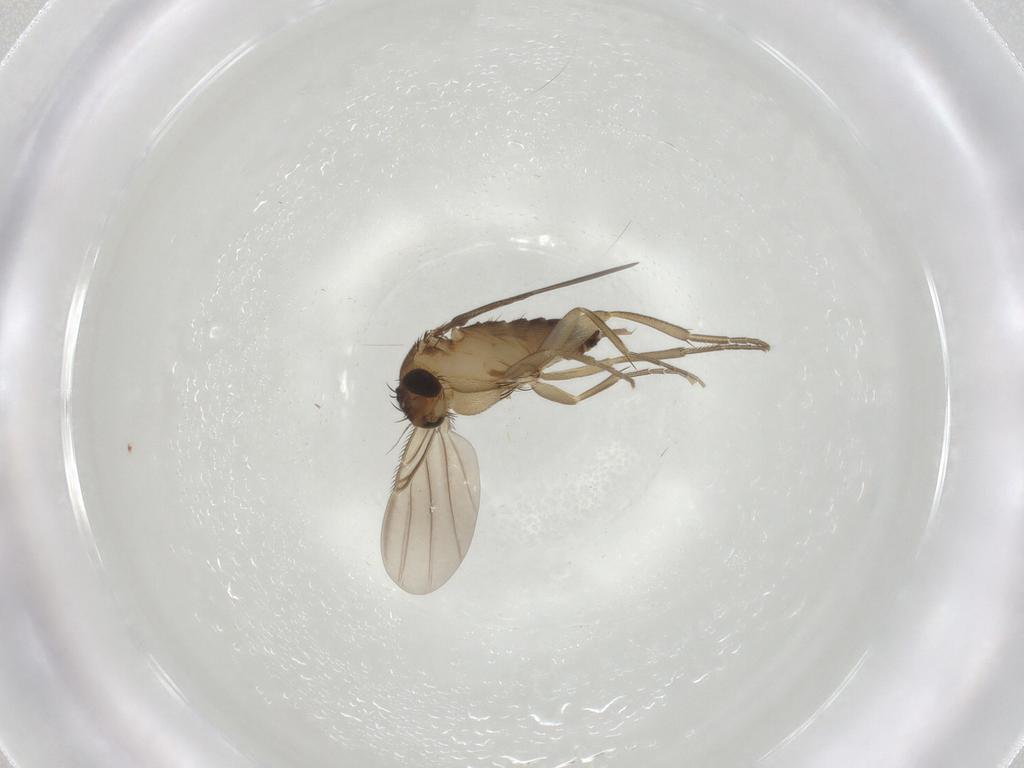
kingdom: Animalia
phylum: Arthropoda
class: Insecta
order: Diptera
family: Phoridae
